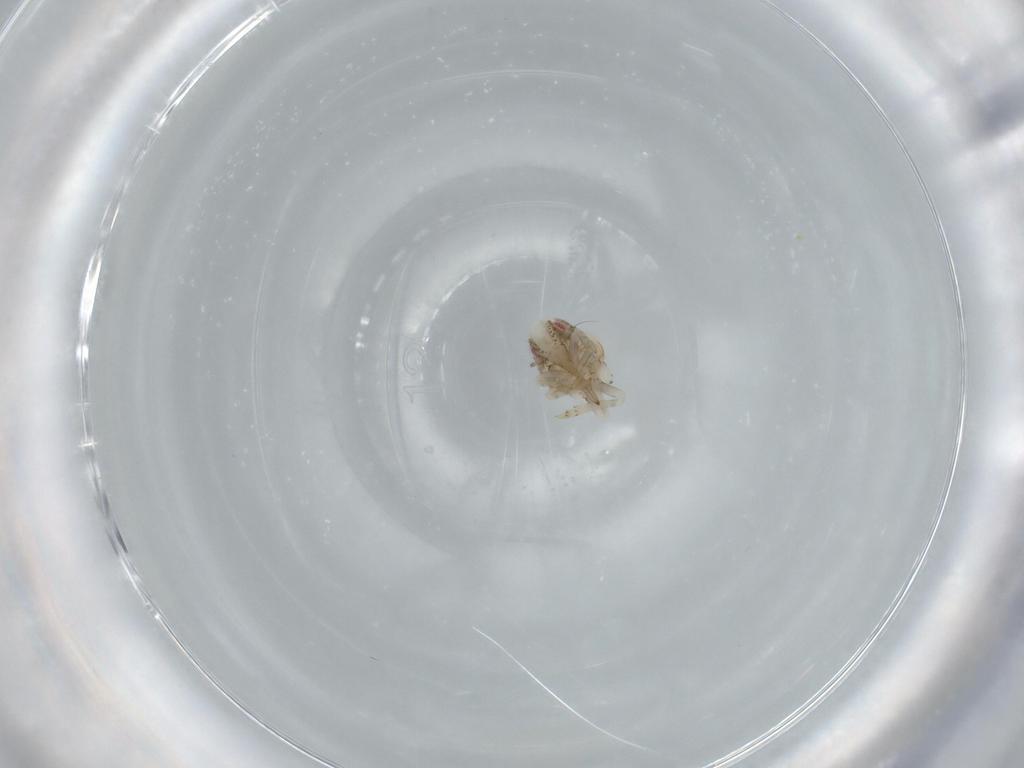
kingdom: Animalia
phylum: Arthropoda
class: Insecta
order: Hemiptera
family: Acanaloniidae
